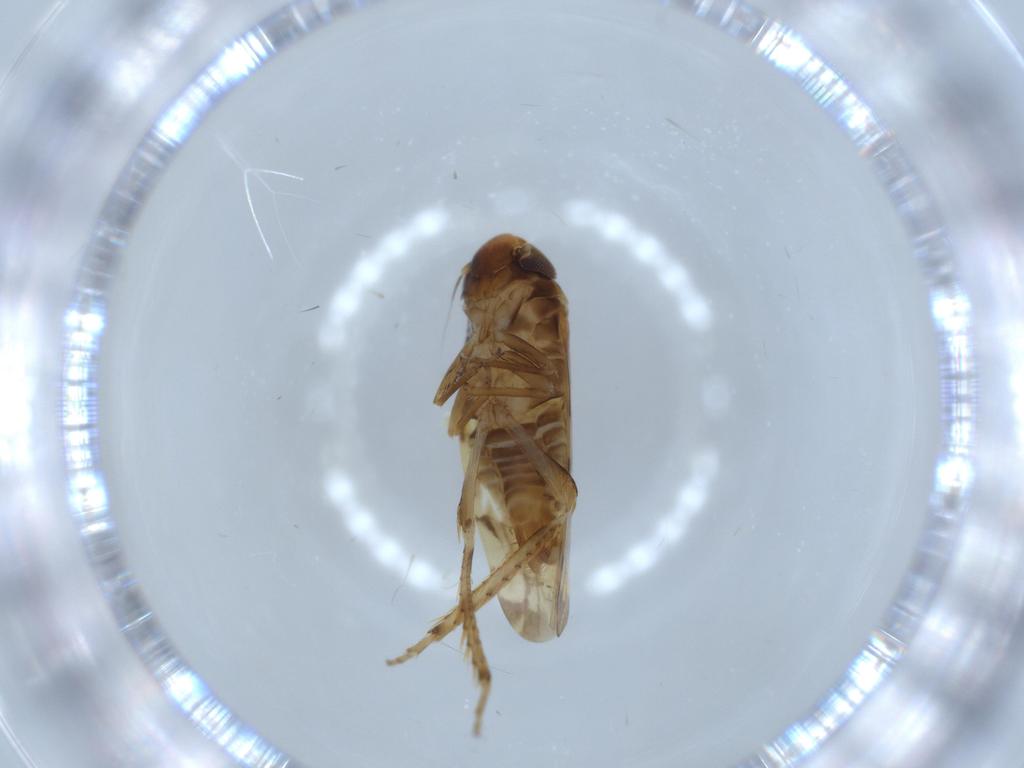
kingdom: Animalia
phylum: Arthropoda
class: Insecta
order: Hemiptera
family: Cicadellidae
